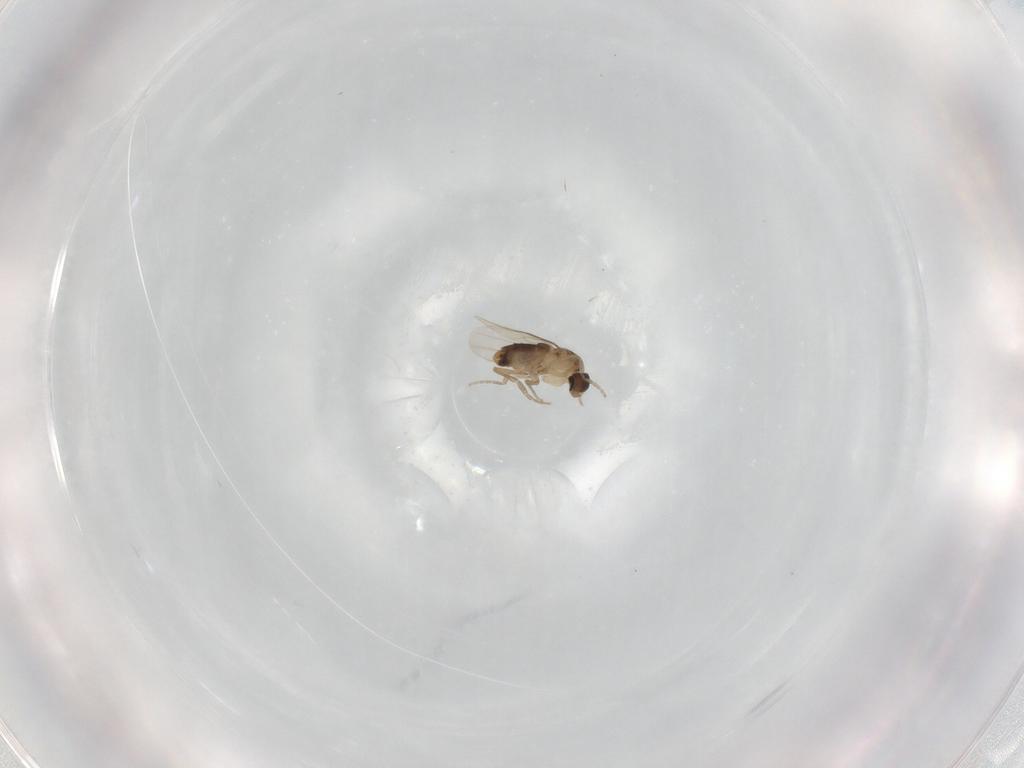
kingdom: Animalia
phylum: Arthropoda
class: Insecta
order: Diptera
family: Phoridae
